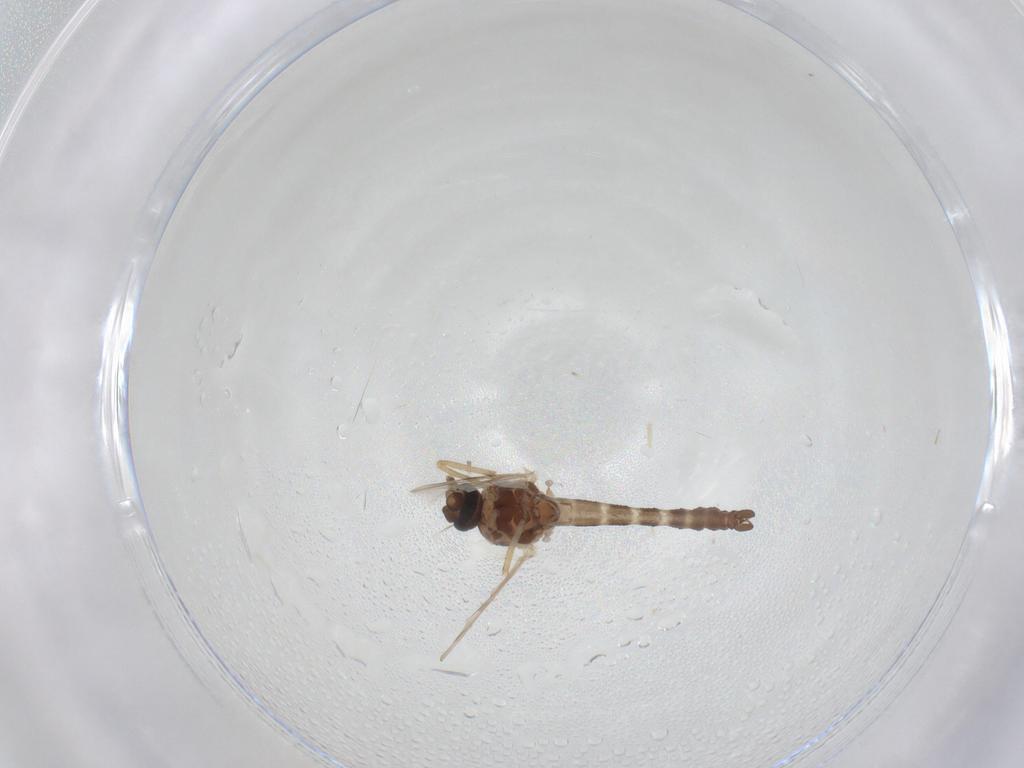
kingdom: Animalia
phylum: Arthropoda
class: Insecta
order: Diptera
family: Ceratopogonidae
